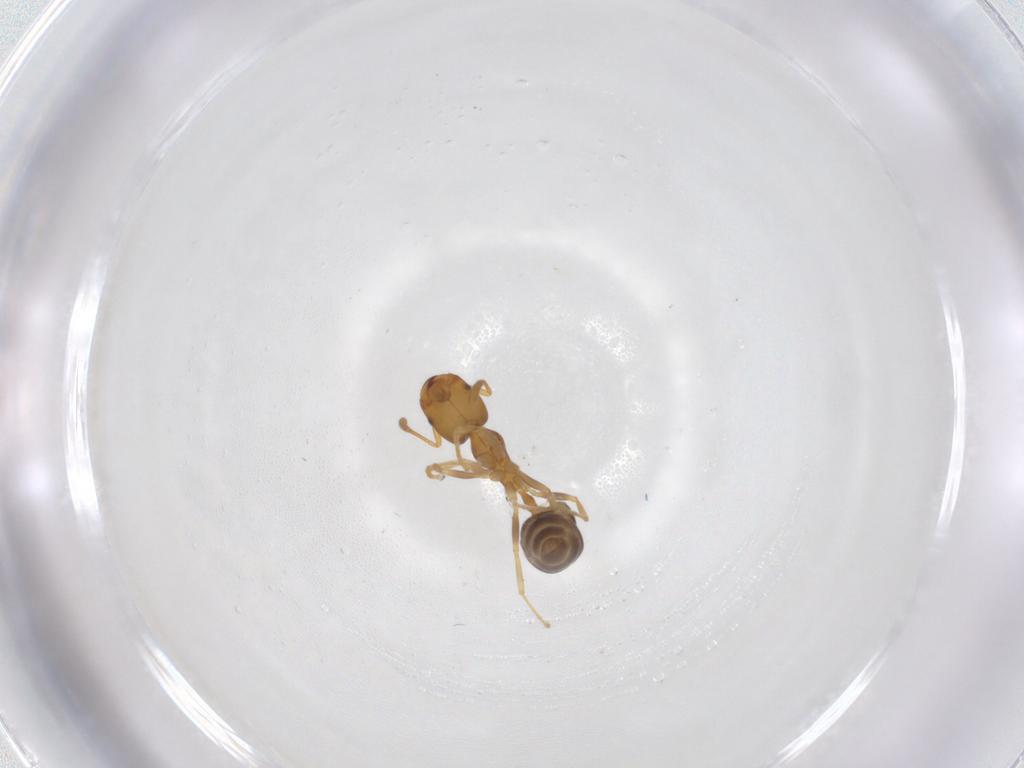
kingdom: Animalia
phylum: Arthropoda
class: Insecta
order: Hymenoptera
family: Formicidae
